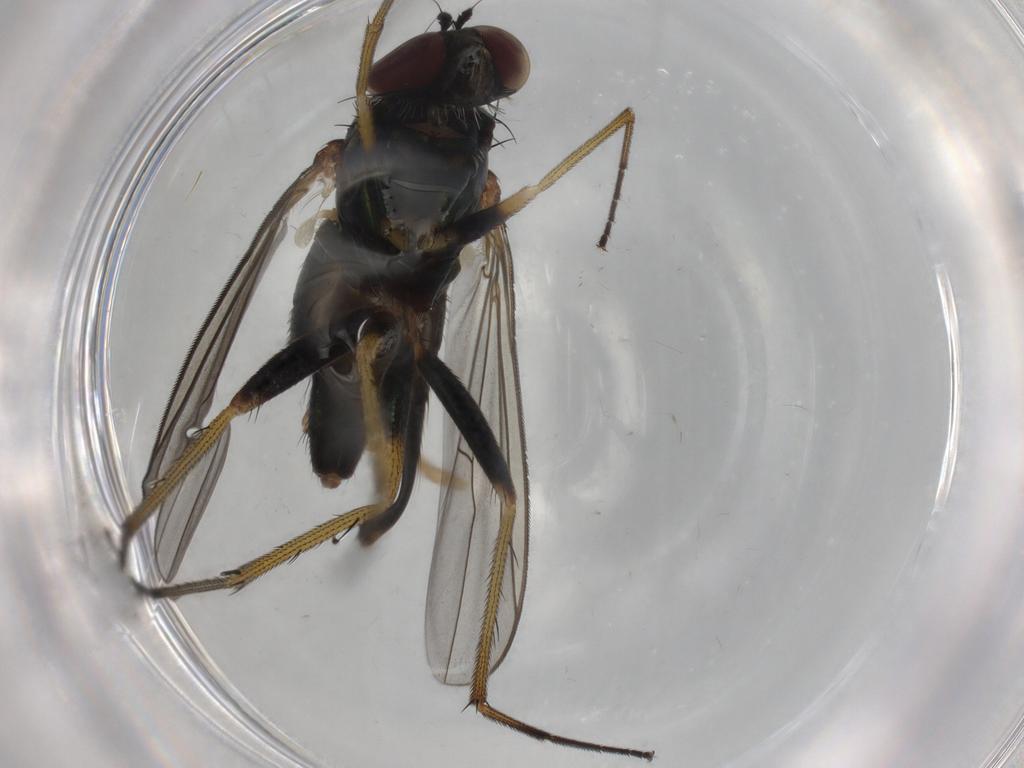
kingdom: Animalia
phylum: Arthropoda
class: Insecta
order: Diptera
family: Dolichopodidae
